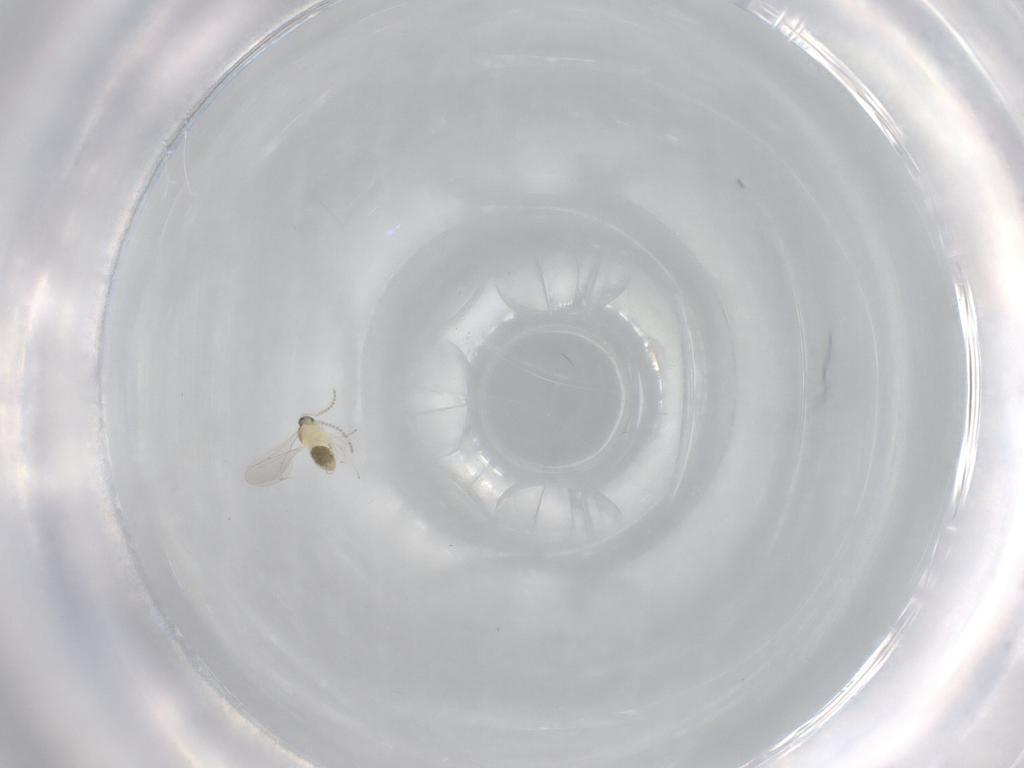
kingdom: Animalia
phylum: Arthropoda
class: Insecta
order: Diptera
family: Cecidomyiidae
